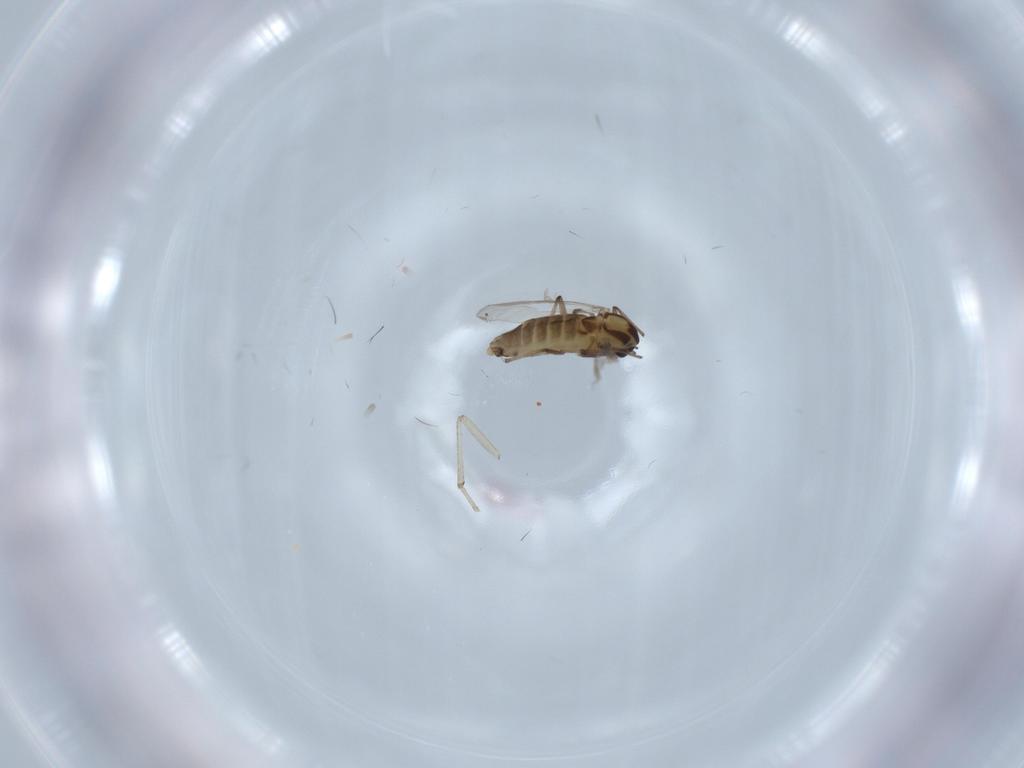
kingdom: Animalia
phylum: Arthropoda
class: Insecta
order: Diptera
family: Chironomidae
